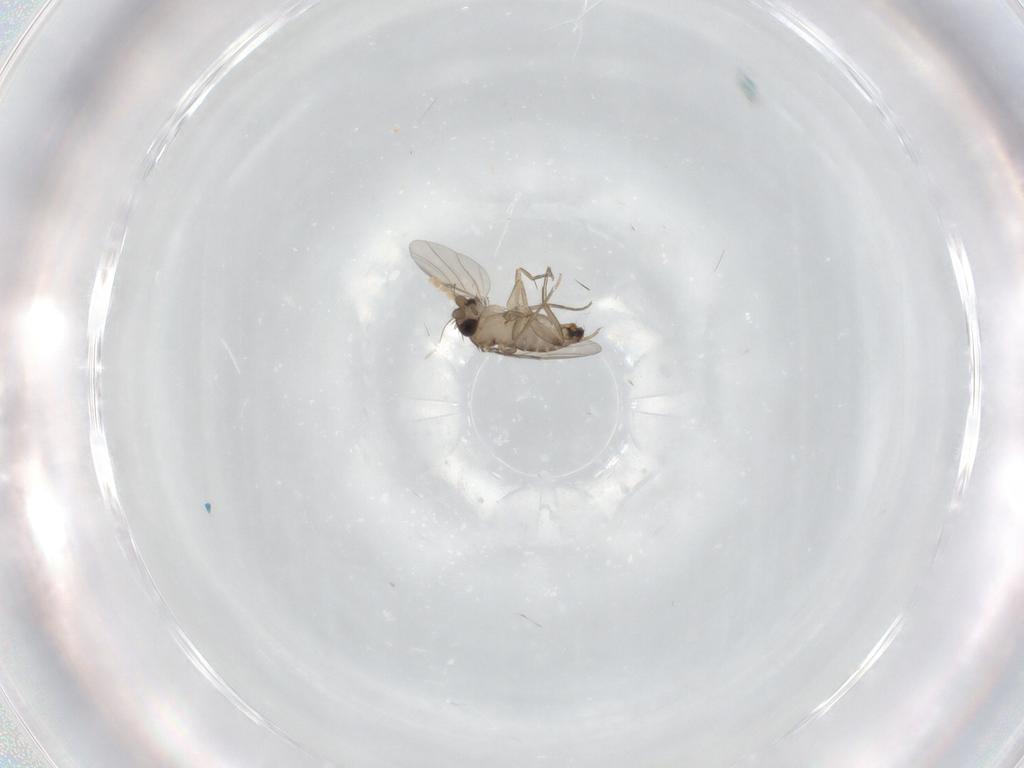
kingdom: Animalia
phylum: Arthropoda
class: Insecta
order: Diptera
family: Phoridae
